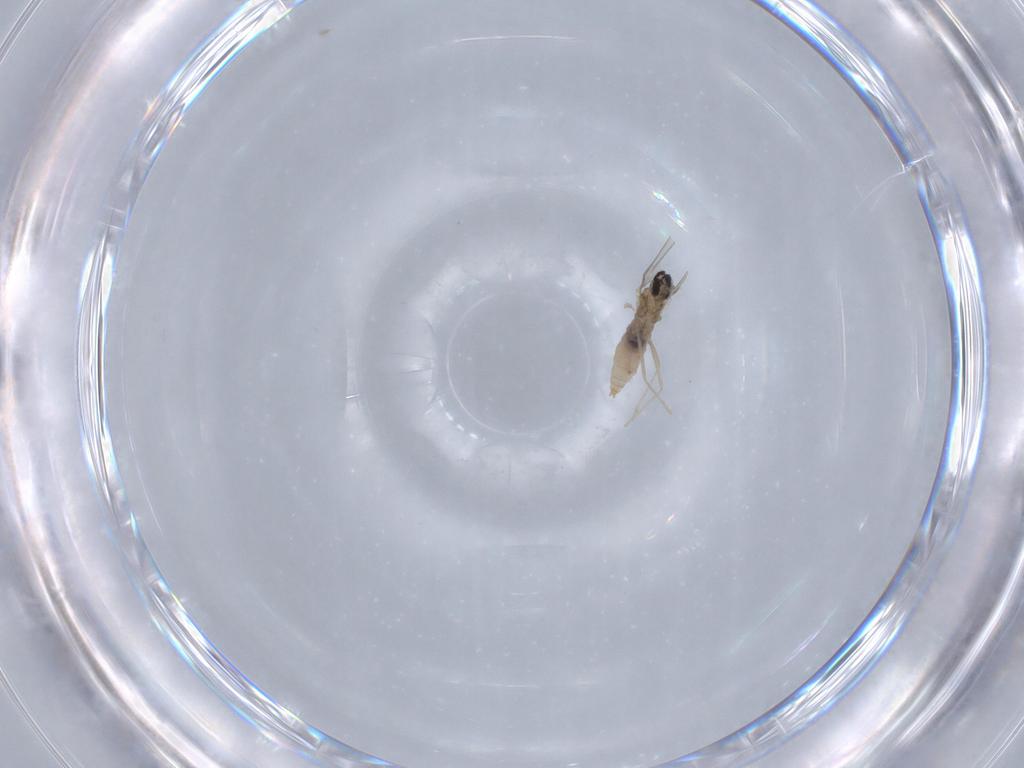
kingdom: Animalia
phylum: Arthropoda
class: Insecta
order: Diptera
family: Cecidomyiidae
